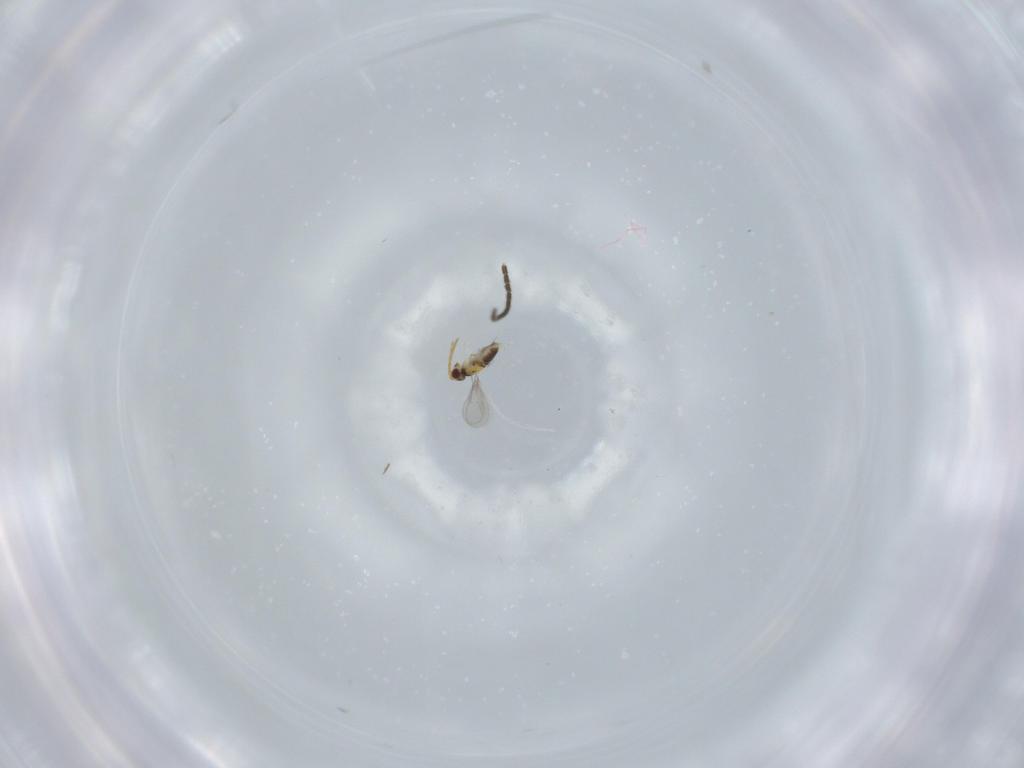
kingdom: Animalia
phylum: Arthropoda
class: Insecta
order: Hymenoptera
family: Aphelinidae
